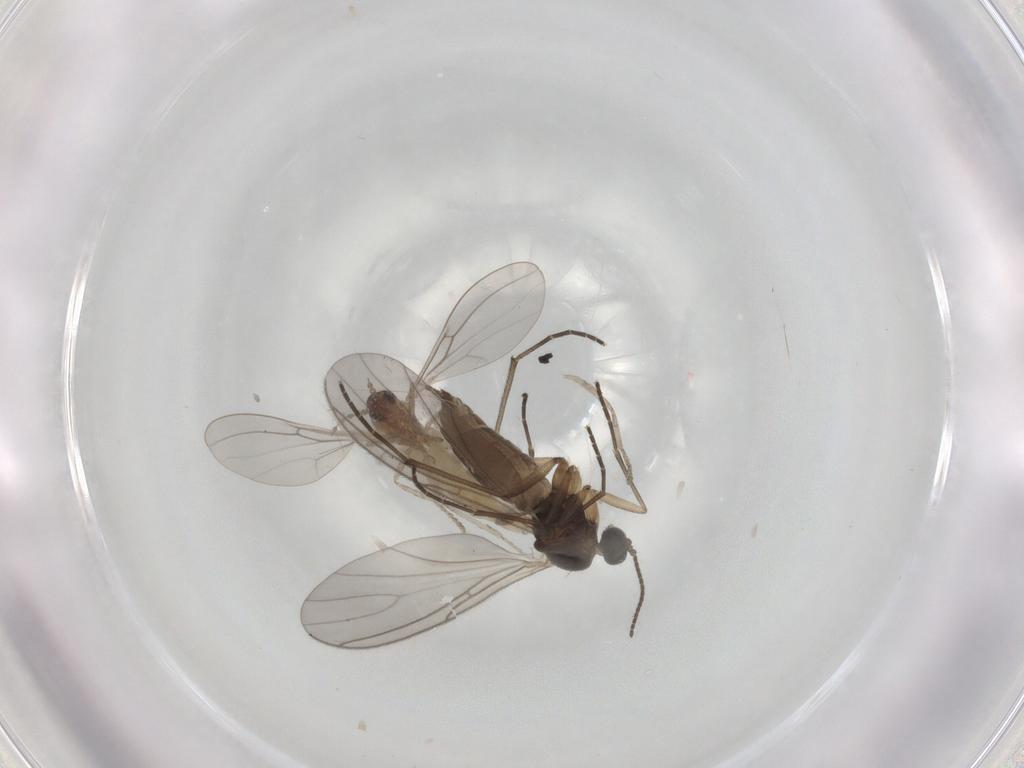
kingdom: Animalia
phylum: Arthropoda
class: Insecta
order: Diptera
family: Sciaridae
